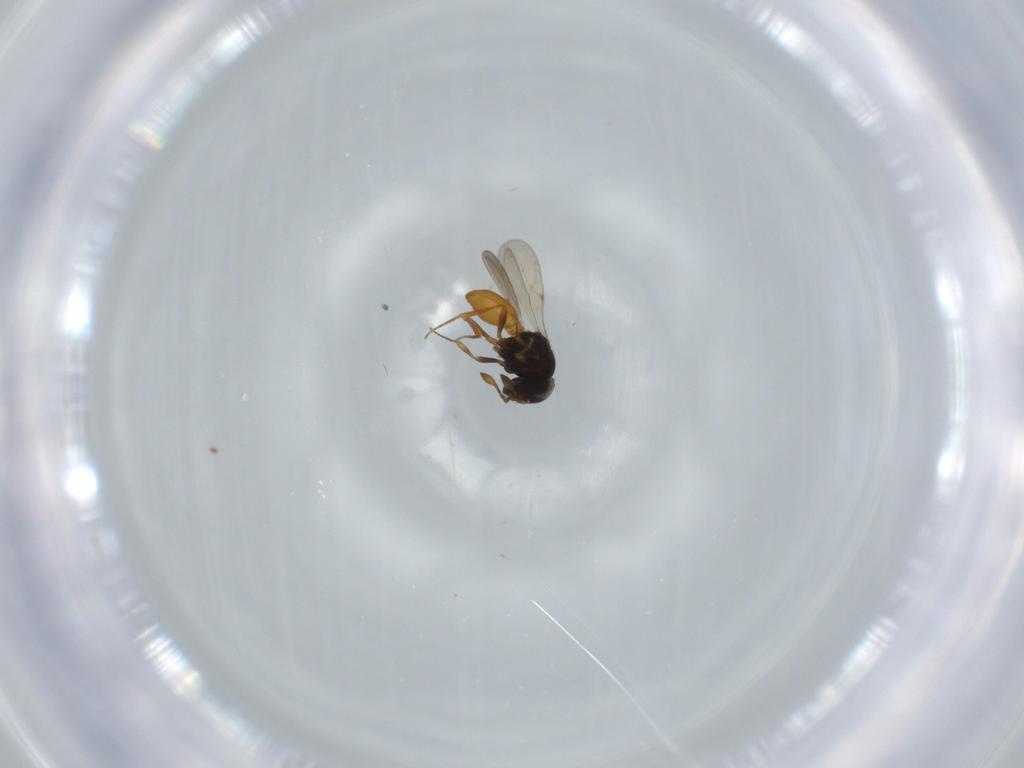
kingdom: Animalia
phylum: Arthropoda
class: Insecta
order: Hymenoptera
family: Scelionidae
